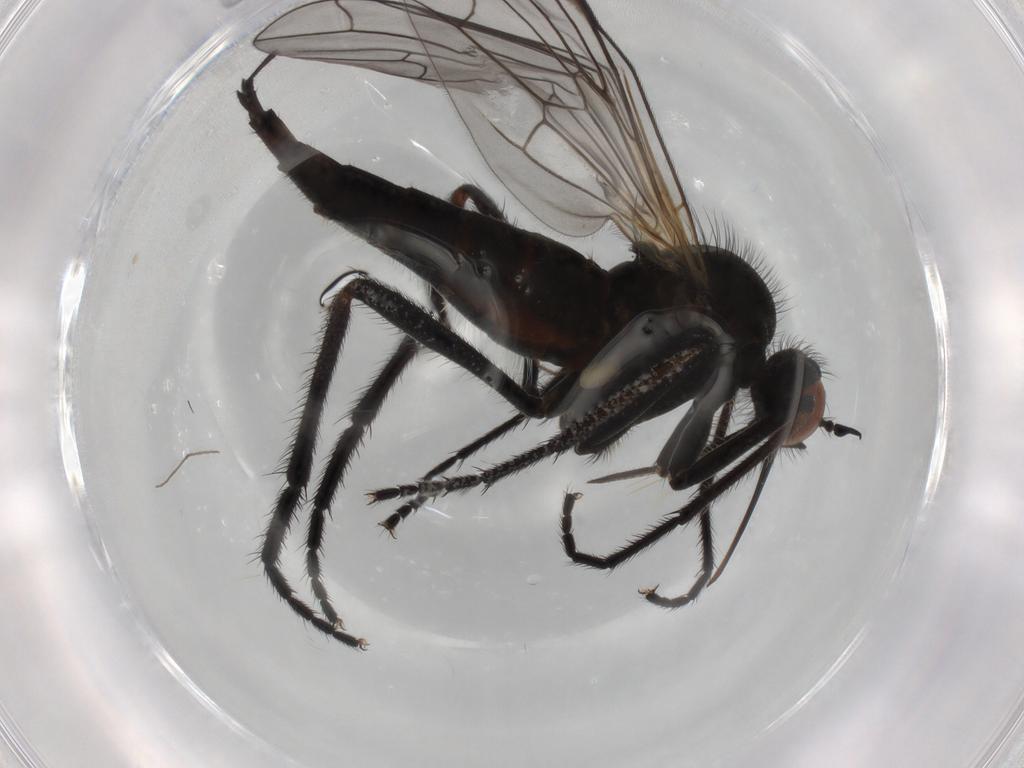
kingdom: Animalia
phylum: Arthropoda
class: Insecta
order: Diptera
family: Empididae
